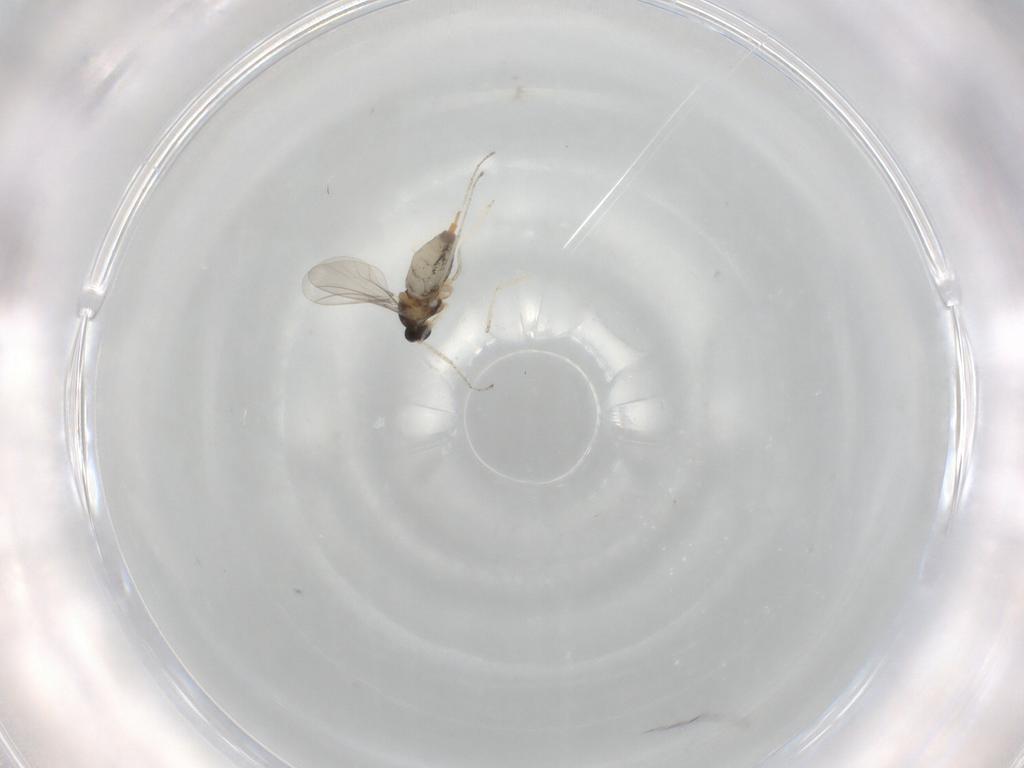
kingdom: Animalia
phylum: Arthropoda
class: Insecta
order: Diptera
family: Cecidomyiidae
